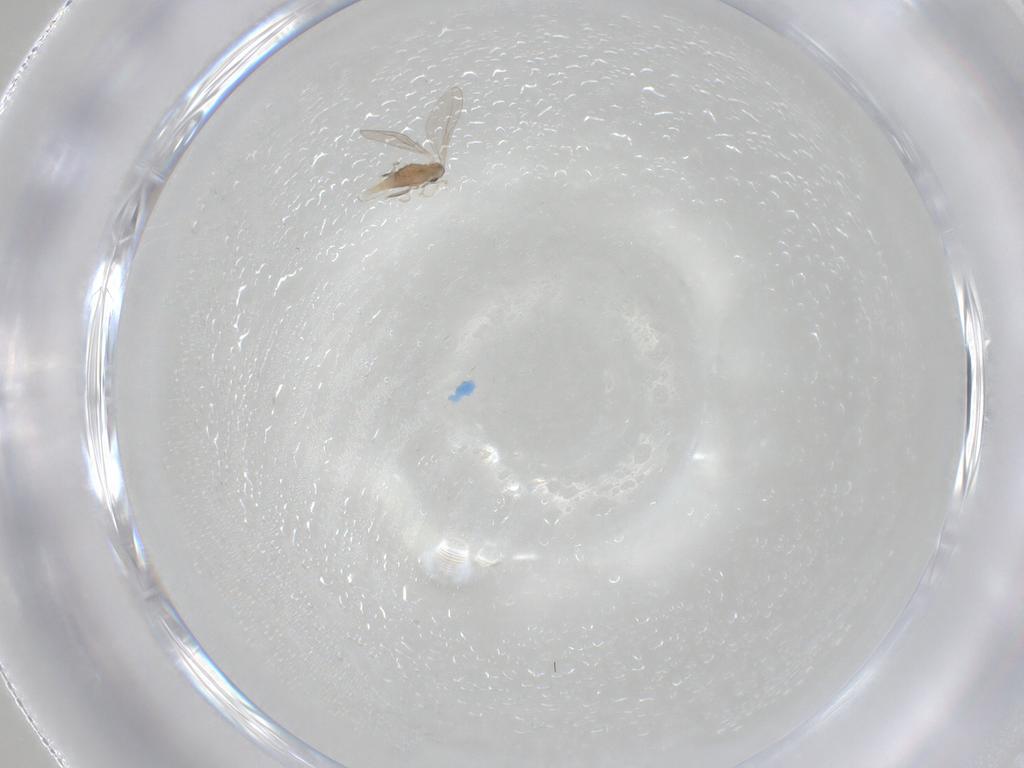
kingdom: Animalia
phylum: Arthropoda
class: Insecta
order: Diptera
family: Cecidomyiidae
